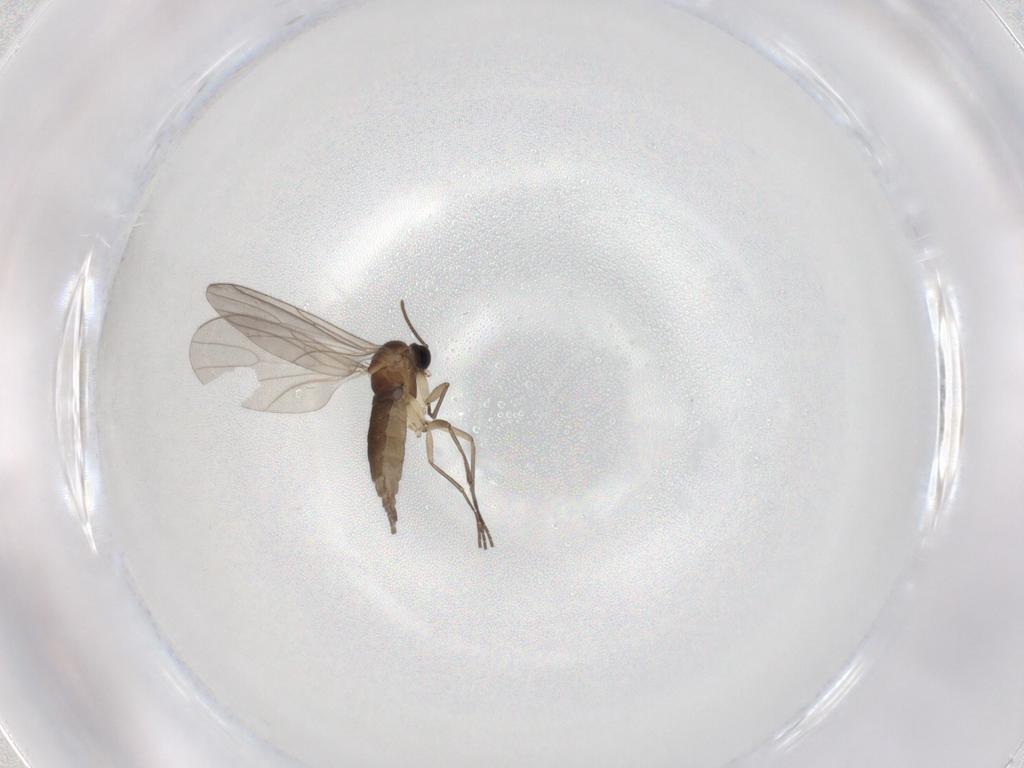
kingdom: Animalia
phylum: Arthropoda
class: Insecta
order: Diptera
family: Sciaridae
